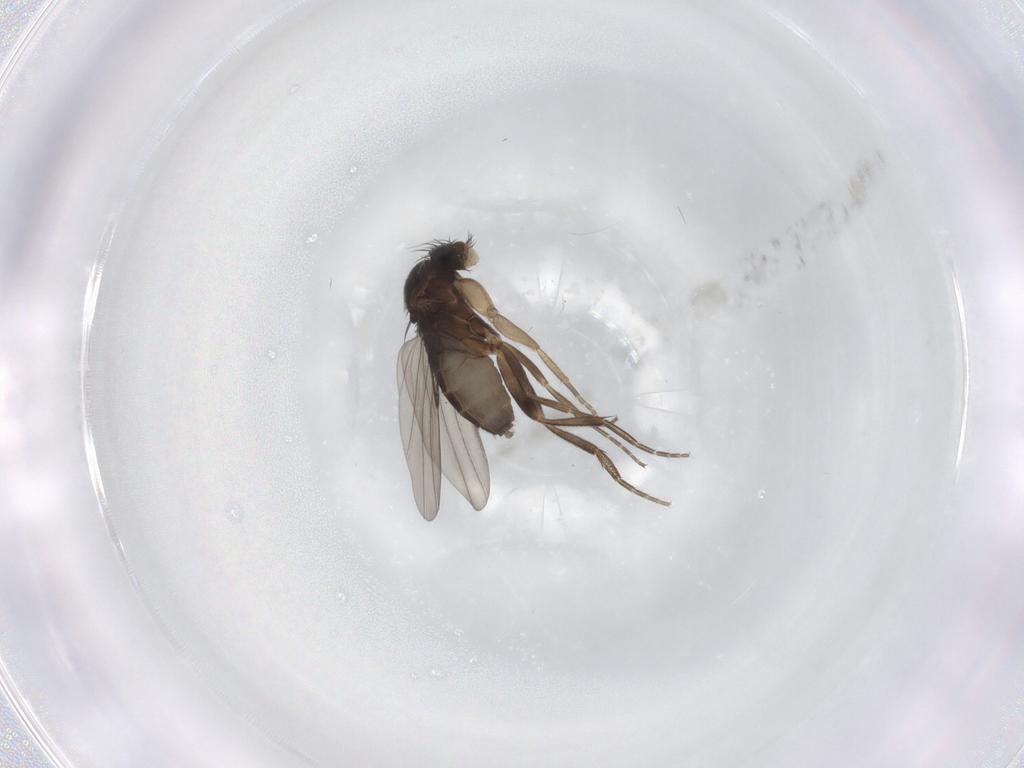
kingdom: Animalia
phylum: Arthropoda
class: Insecta
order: Diptera
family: Phoridae
